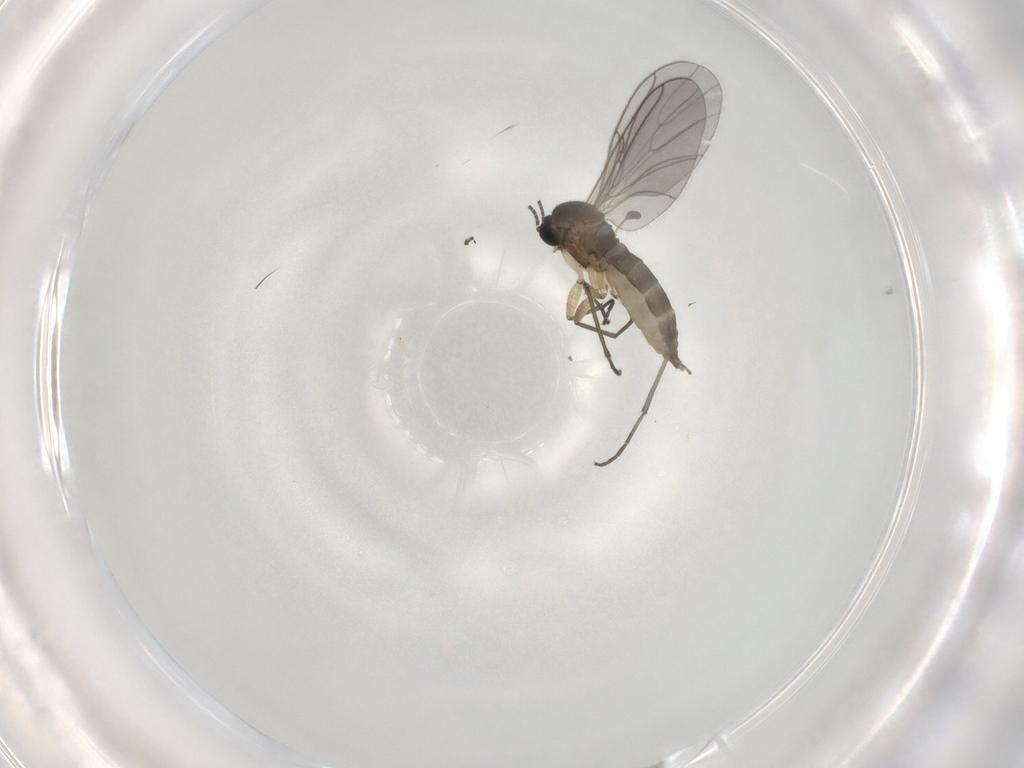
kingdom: Animalia
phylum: Arthropoda
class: Insecta
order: Diptera
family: Sciaridae
